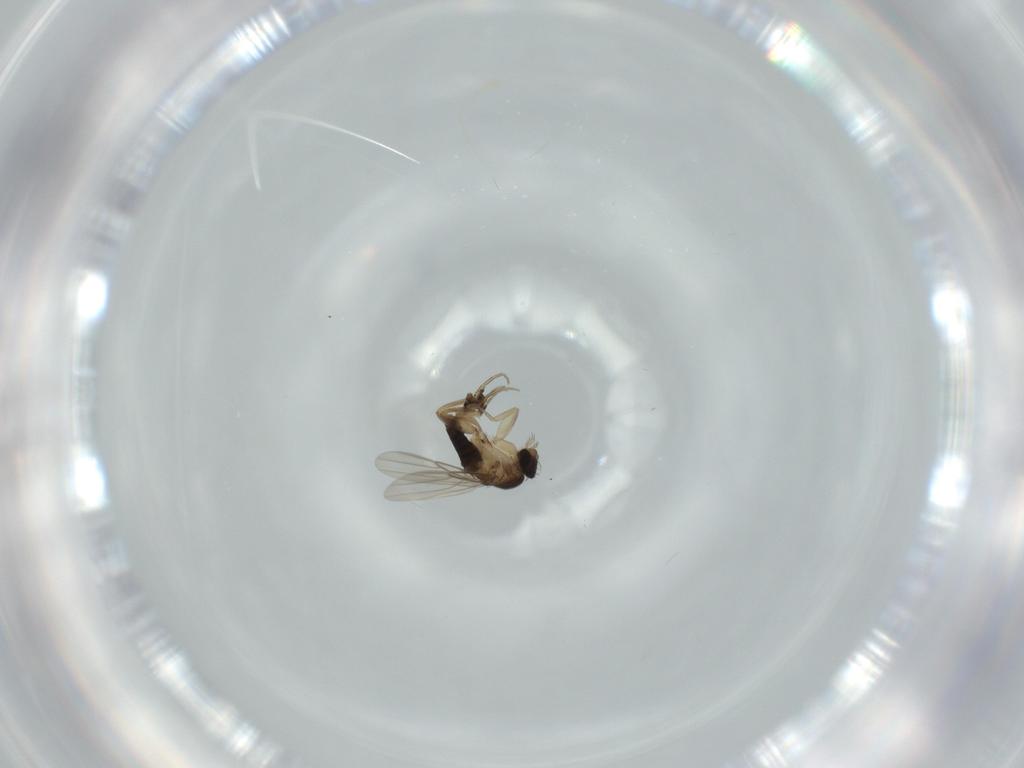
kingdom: Animalia
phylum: Arthropoda
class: Insecta
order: Diptera
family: Phoridae
